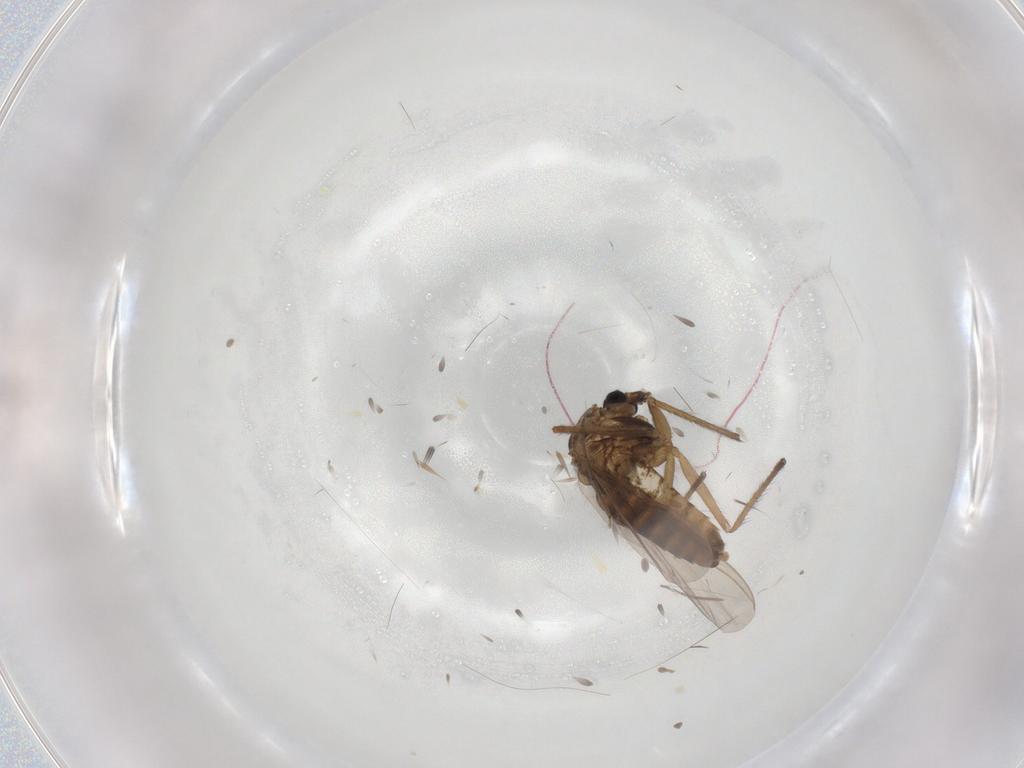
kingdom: Animalia
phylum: Arthropoda
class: Insecta
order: Diptera
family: Chironomidae
